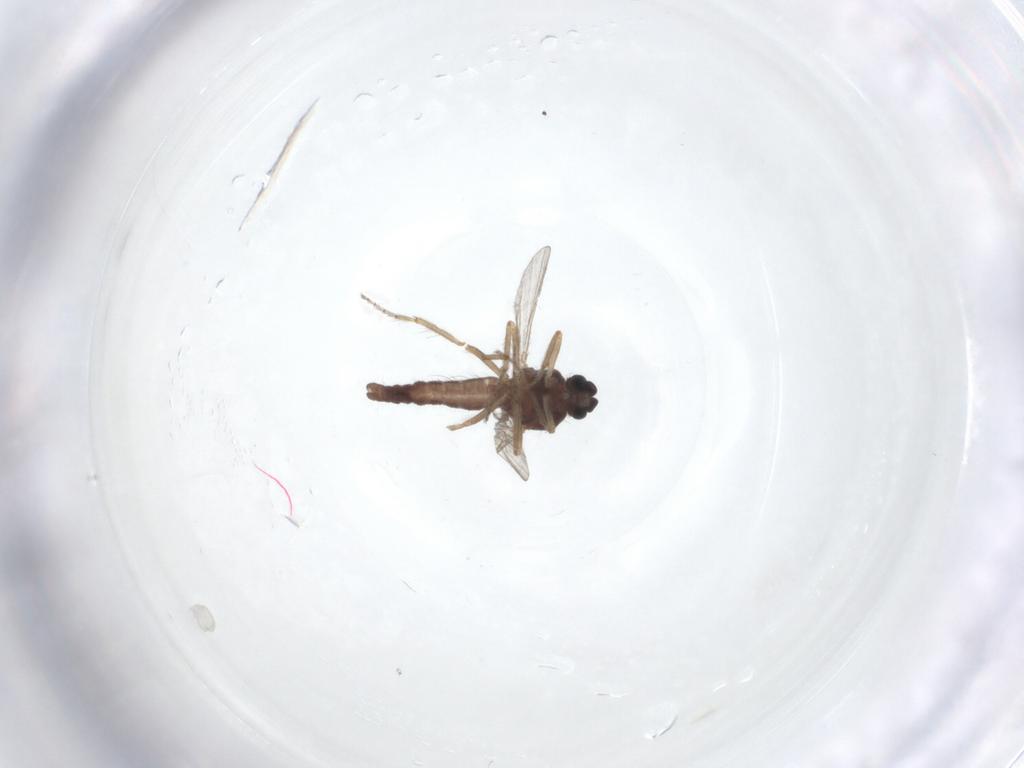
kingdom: Animalia
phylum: Arthropoda
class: Insecta
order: Diptera
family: Ceratopogonidae
